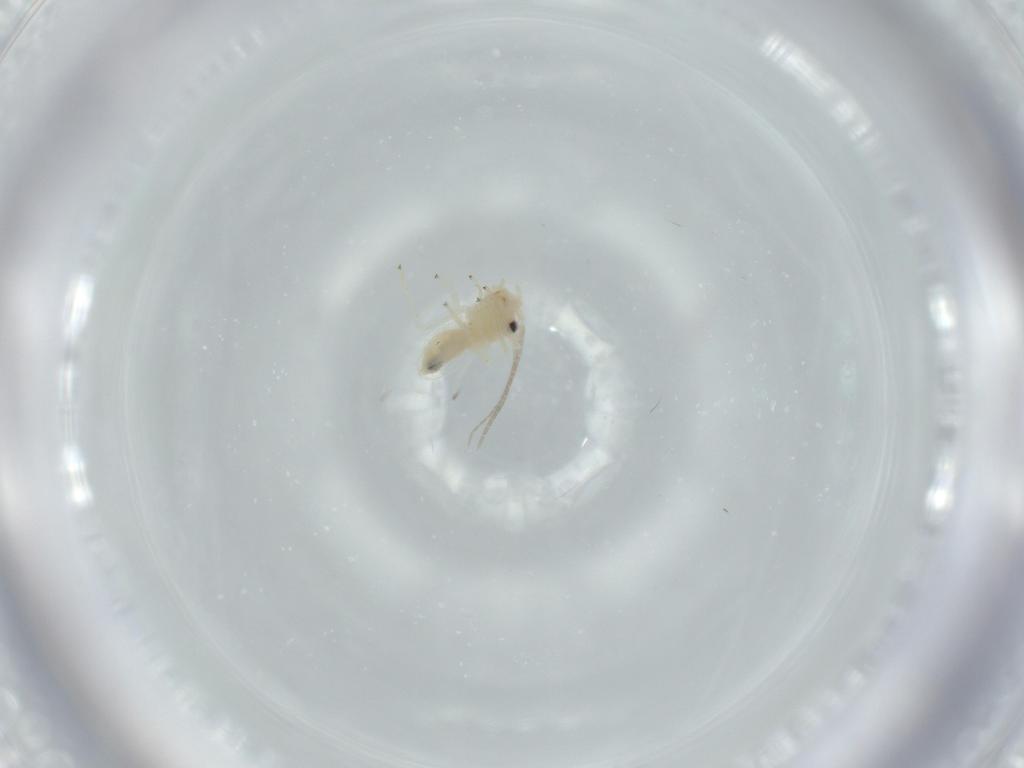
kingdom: Animalia
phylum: Arthropoda
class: Insecta
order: Psocodea
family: Caeciliusidae
